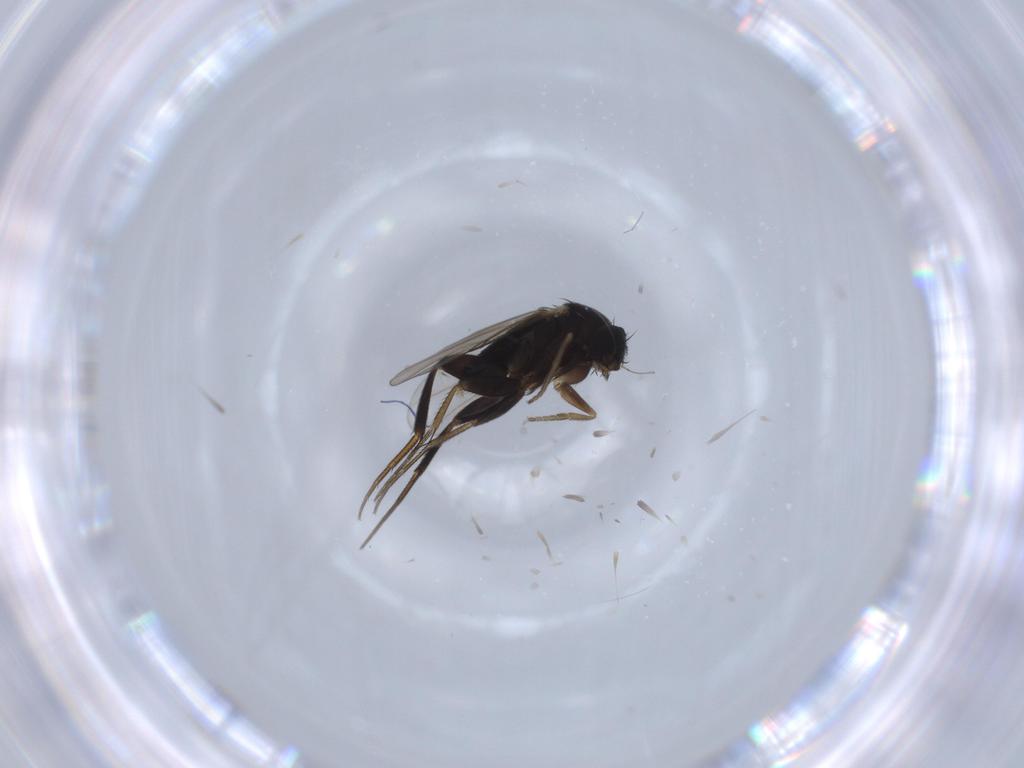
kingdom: Animalia
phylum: Arthropoda
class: Insecta
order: Diptera
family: Phoridae
